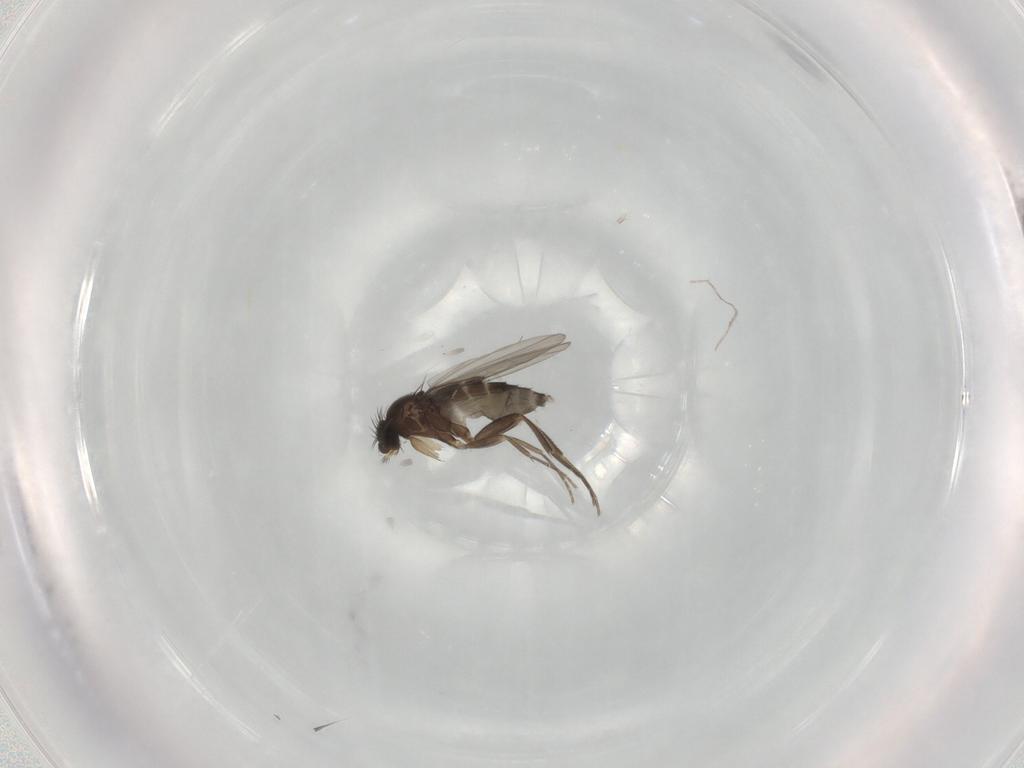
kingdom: Animalia
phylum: Arthropoda
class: Insecta
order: Diptera
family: Phoridae
